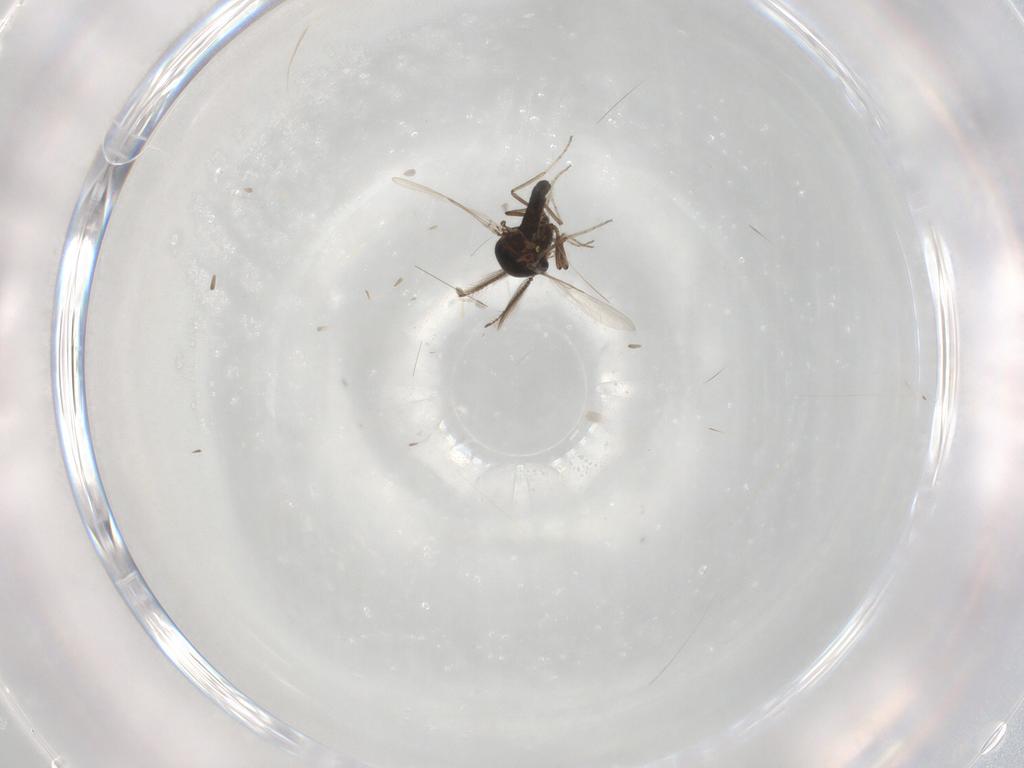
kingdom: Animalia
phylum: Arthropoda
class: Insecta
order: Diptera
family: Ceratopogonidae
